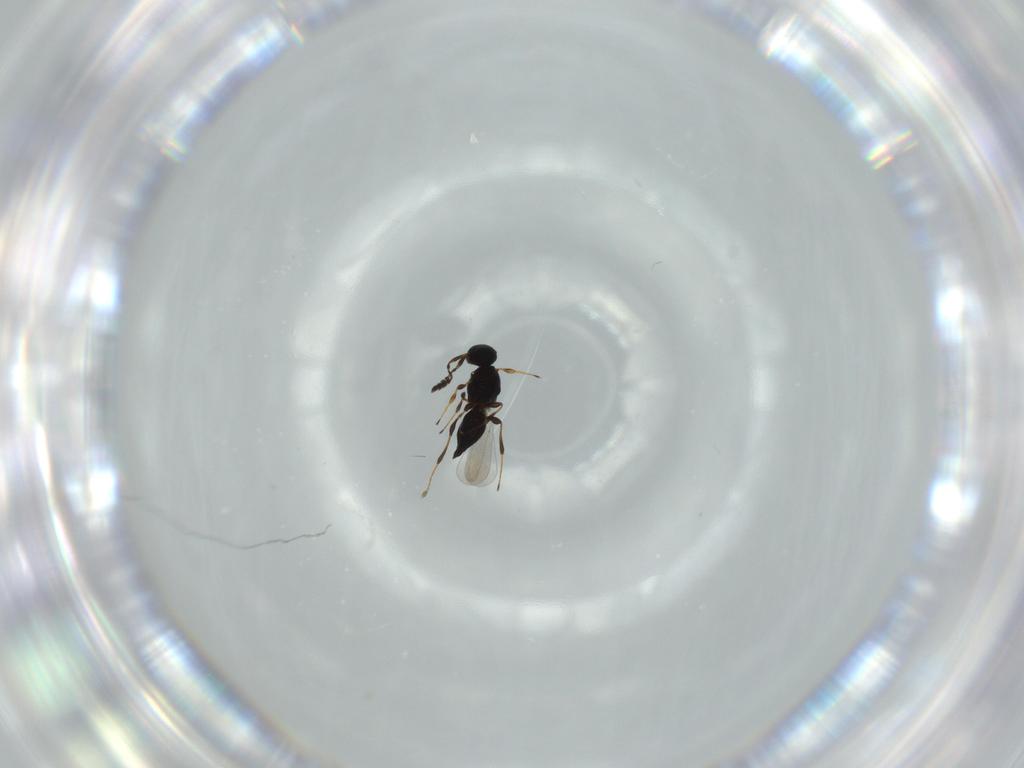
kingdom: Animalia
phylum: Arthropoda
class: Insecta
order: Hymenoptera
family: Platygastridae
